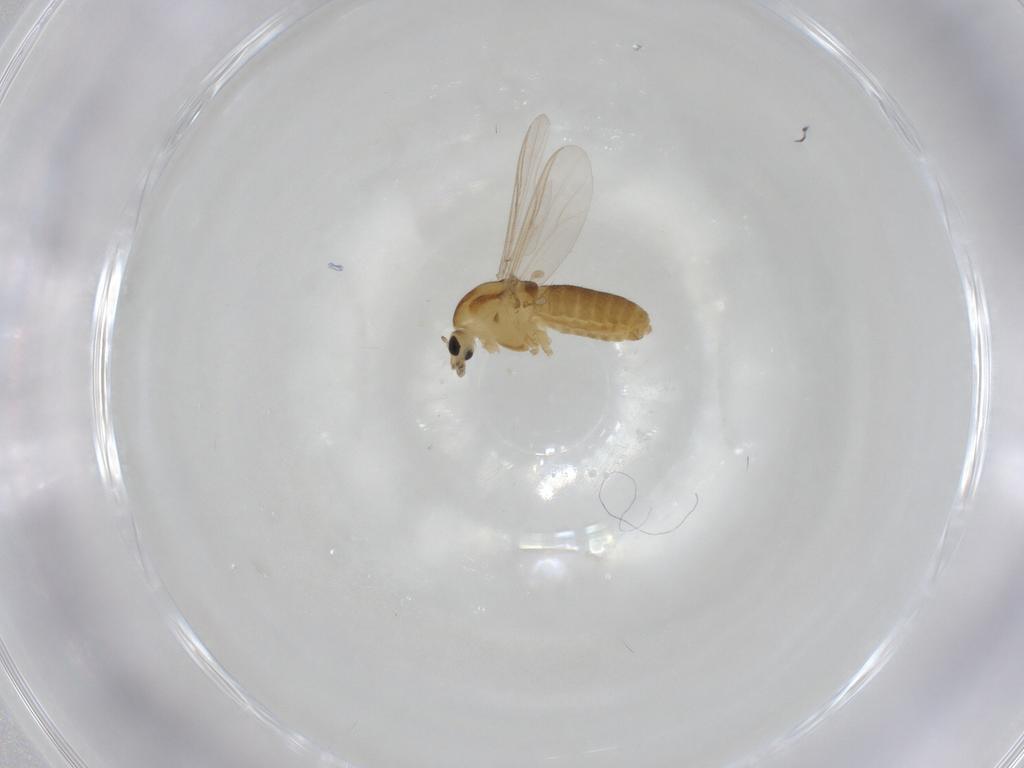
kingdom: Animalia
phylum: Arthropoda
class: Insecta
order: Diptera
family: Chironomidae
